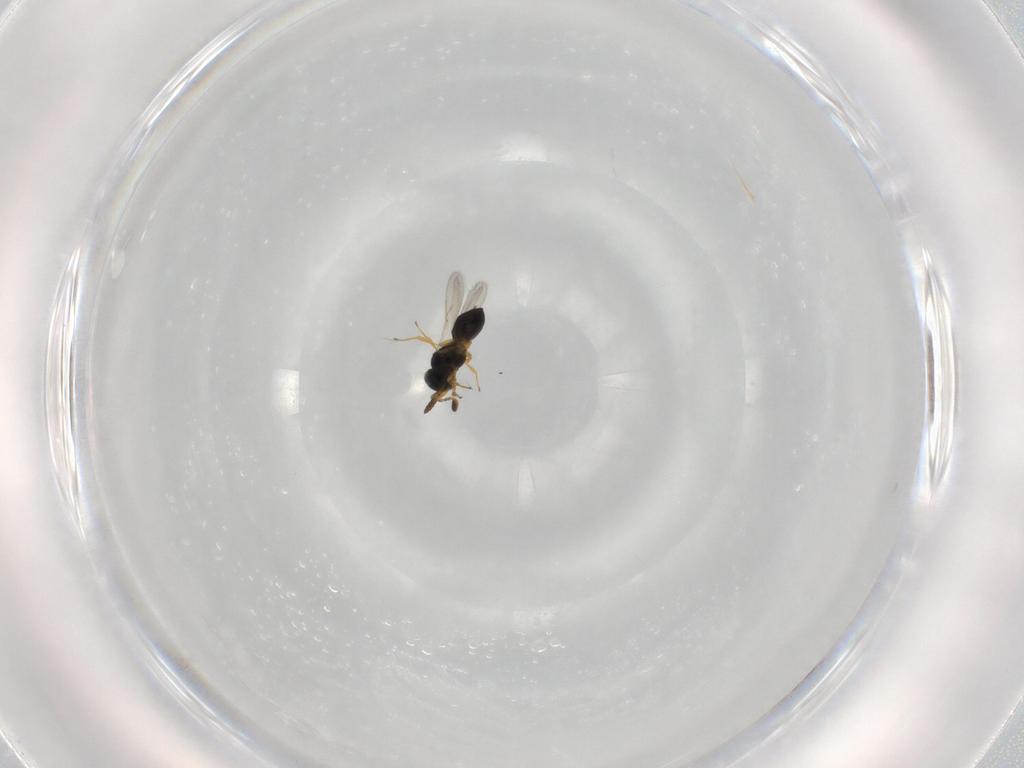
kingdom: Animalia
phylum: Arthropoda
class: Insecta
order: Hymenoptera
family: Scelionidae
